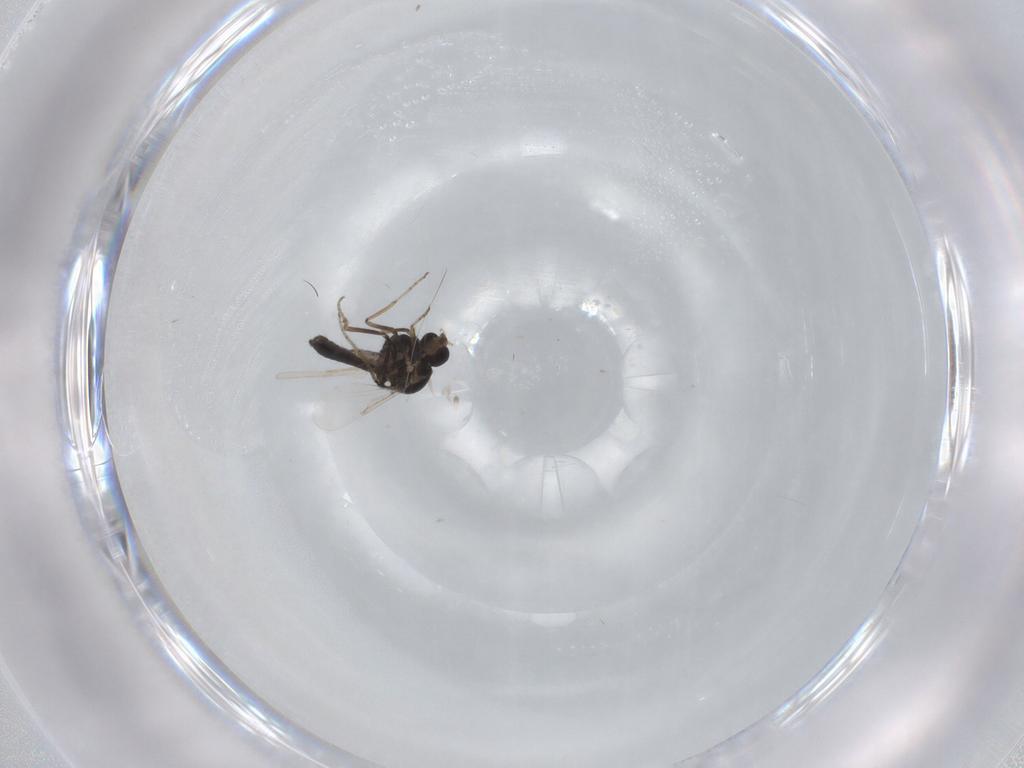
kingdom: Animalia
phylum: Arthropoda
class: Insecta
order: Diptera
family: Ceratopogonidae
